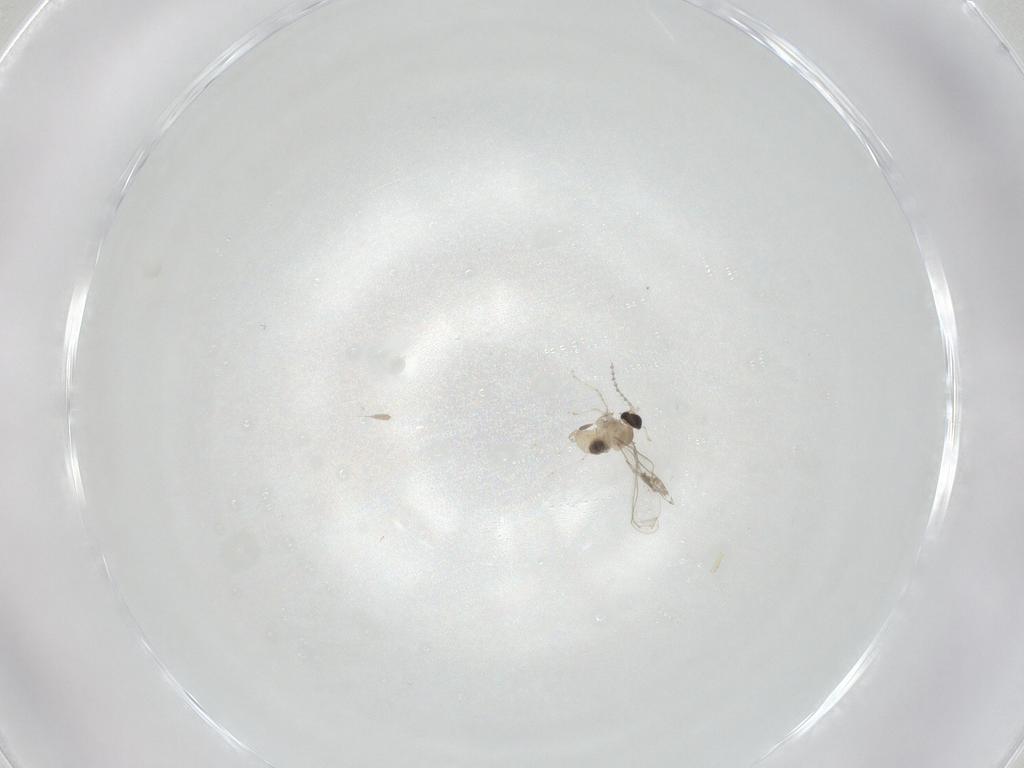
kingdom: Animalia
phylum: Arthropoda
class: Insecta
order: Diptera
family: Cecidomyiidae
